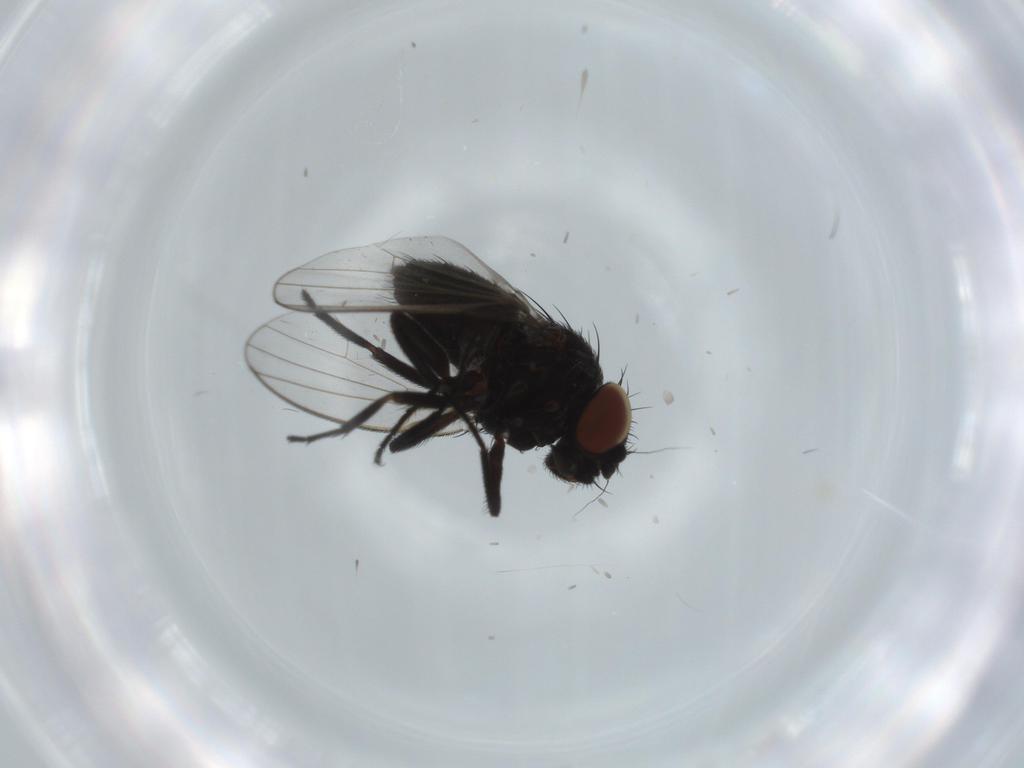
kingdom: Animalia
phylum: Arthropoda
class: Insecta
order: Diptera
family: Milichiidae
